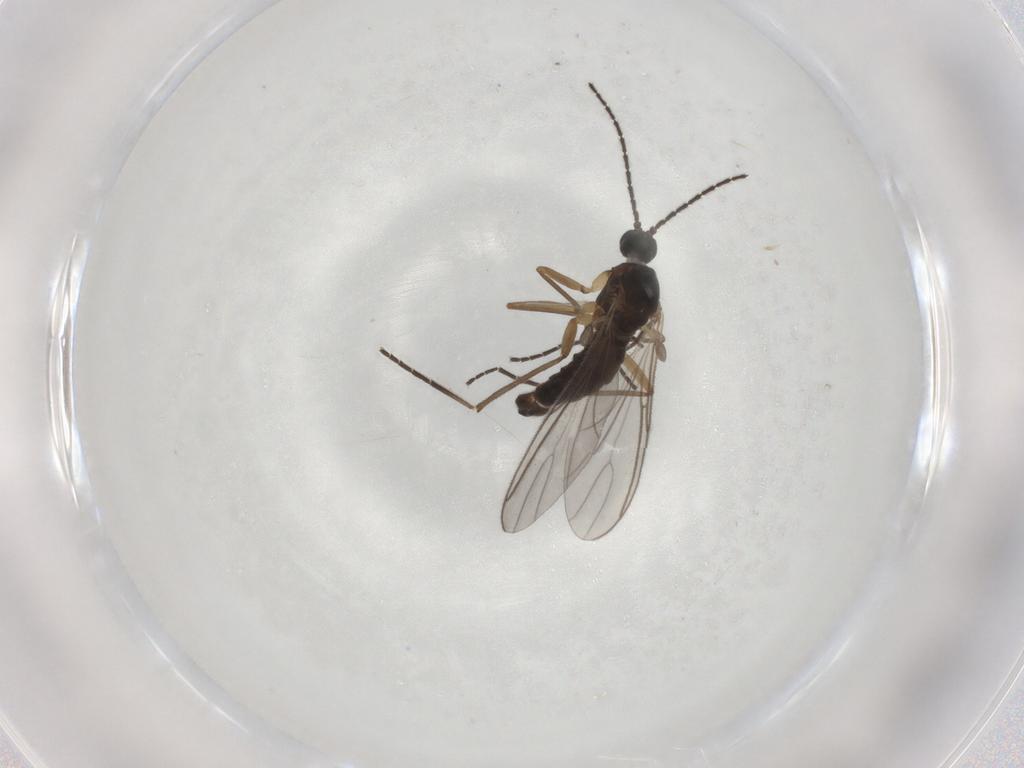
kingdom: Animalia
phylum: Arthropoda
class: Insecta
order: Diptera
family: Sciaridae
